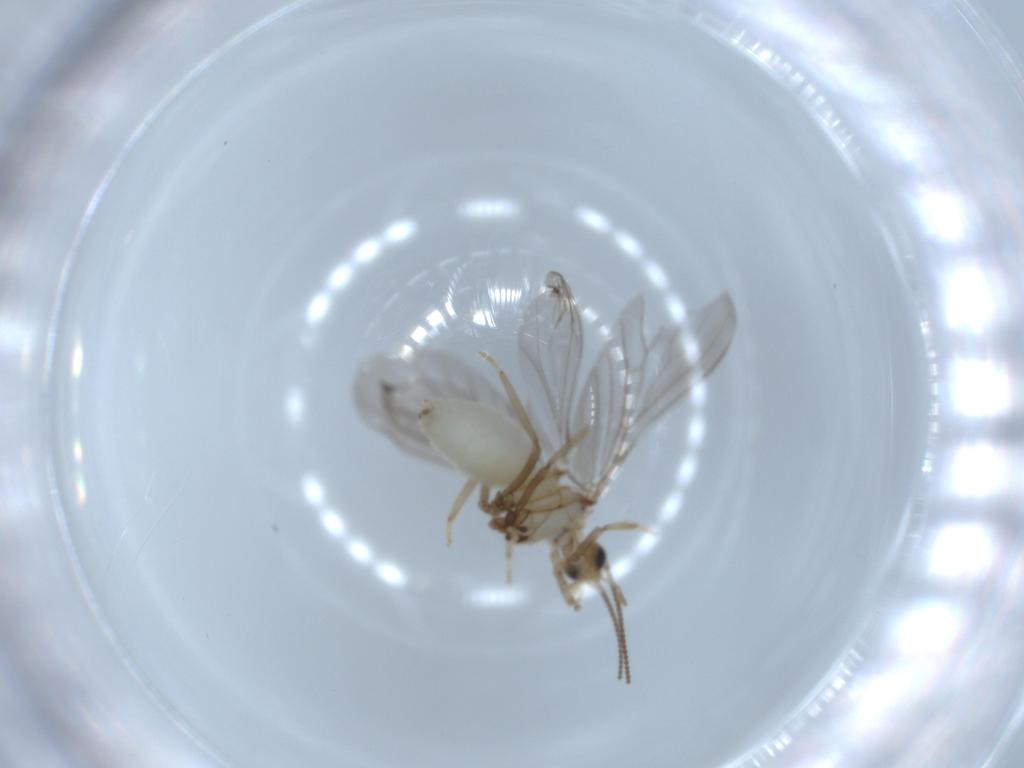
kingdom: Animalia
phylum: Arthropoda
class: Insecta
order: Neuroptera
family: Coniopterygidae
